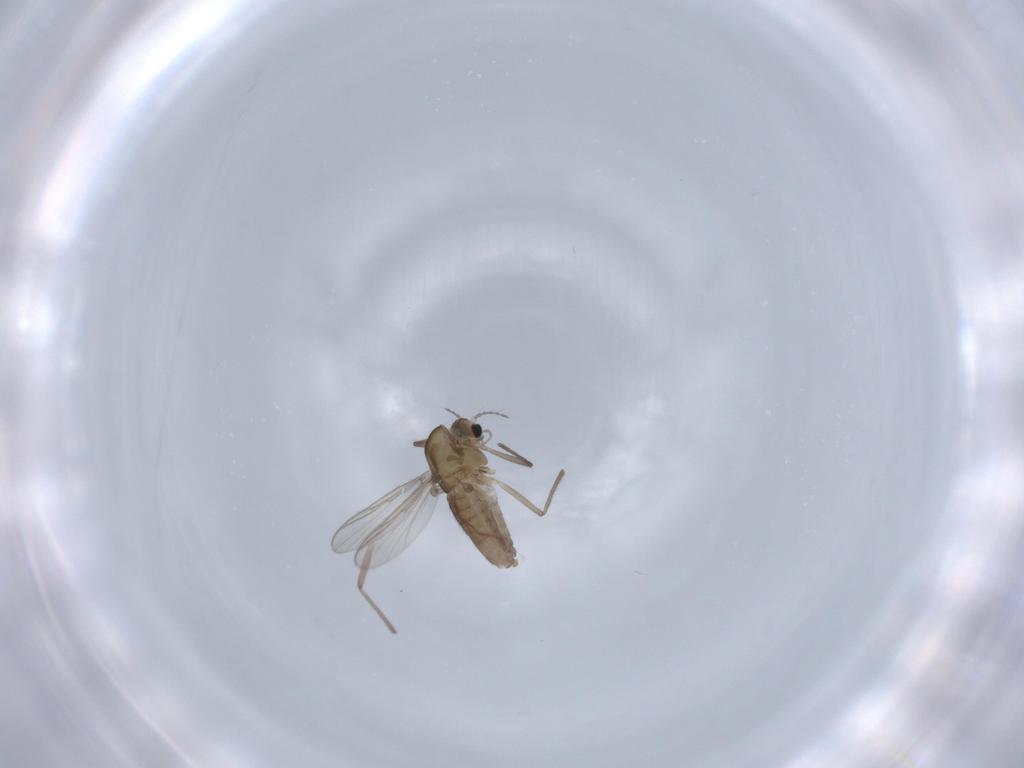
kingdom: Animalia
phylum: Arthropoda
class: Insecta
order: Diptera
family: Chironomidae
